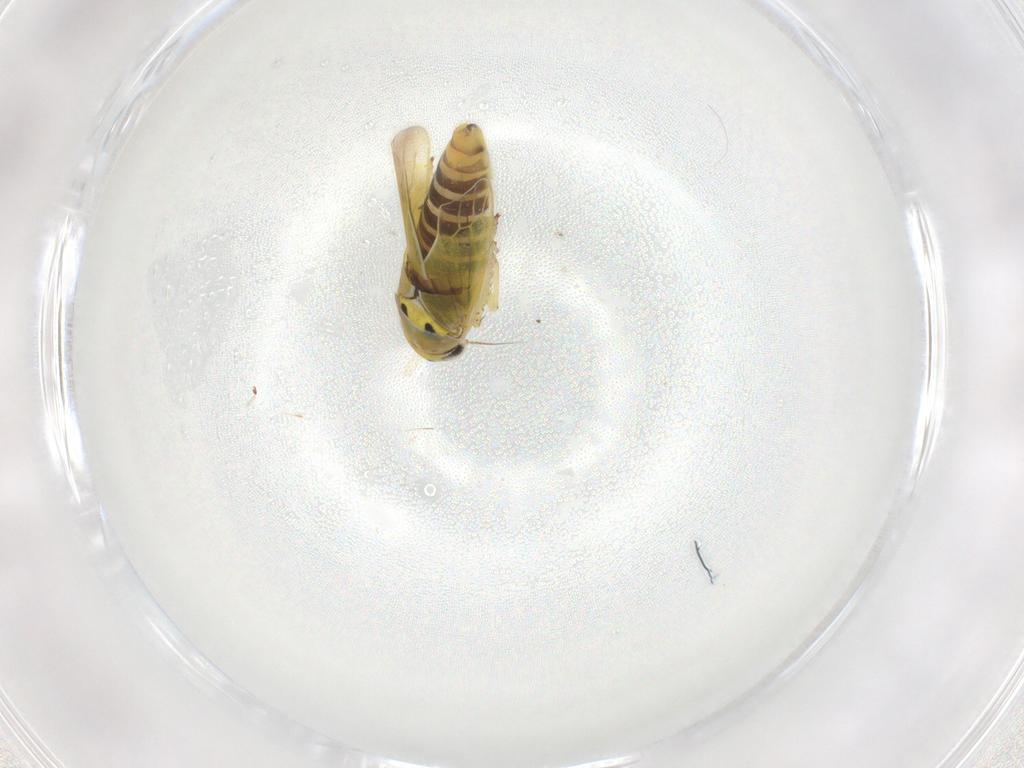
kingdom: Animalia
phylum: Arthropoda
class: Insecta
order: Hemiptera
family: Cicadellidae
